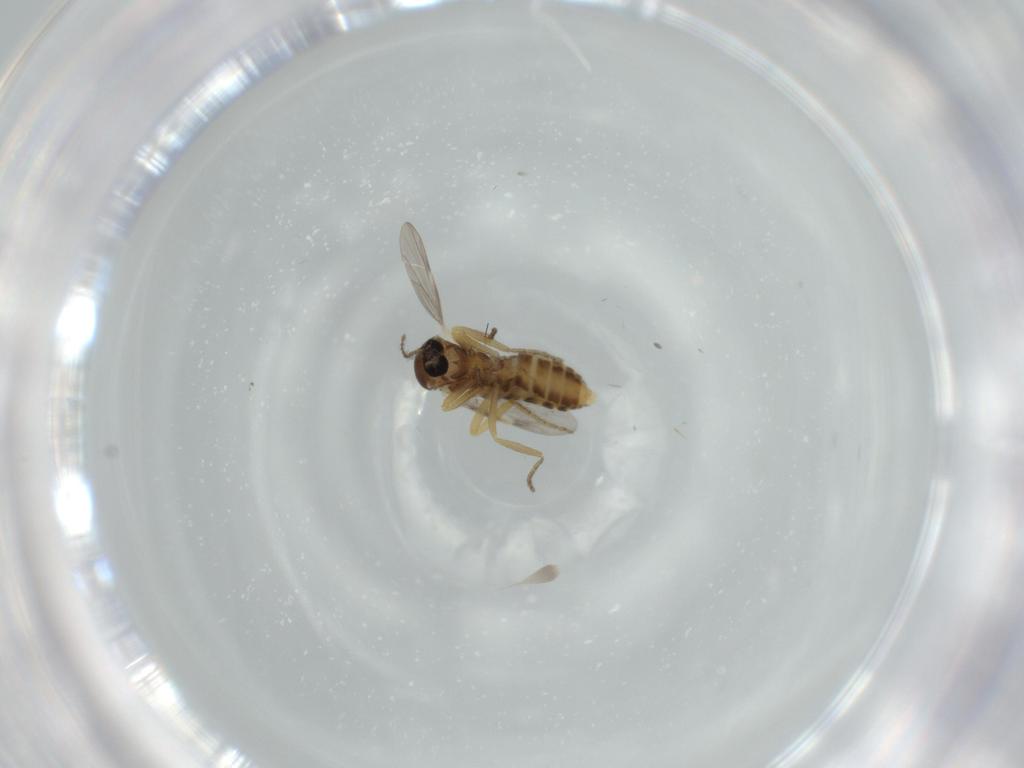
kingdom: Animalia
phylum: Arthropoda
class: Insecta
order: Diptera
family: Ceratopogonidae
